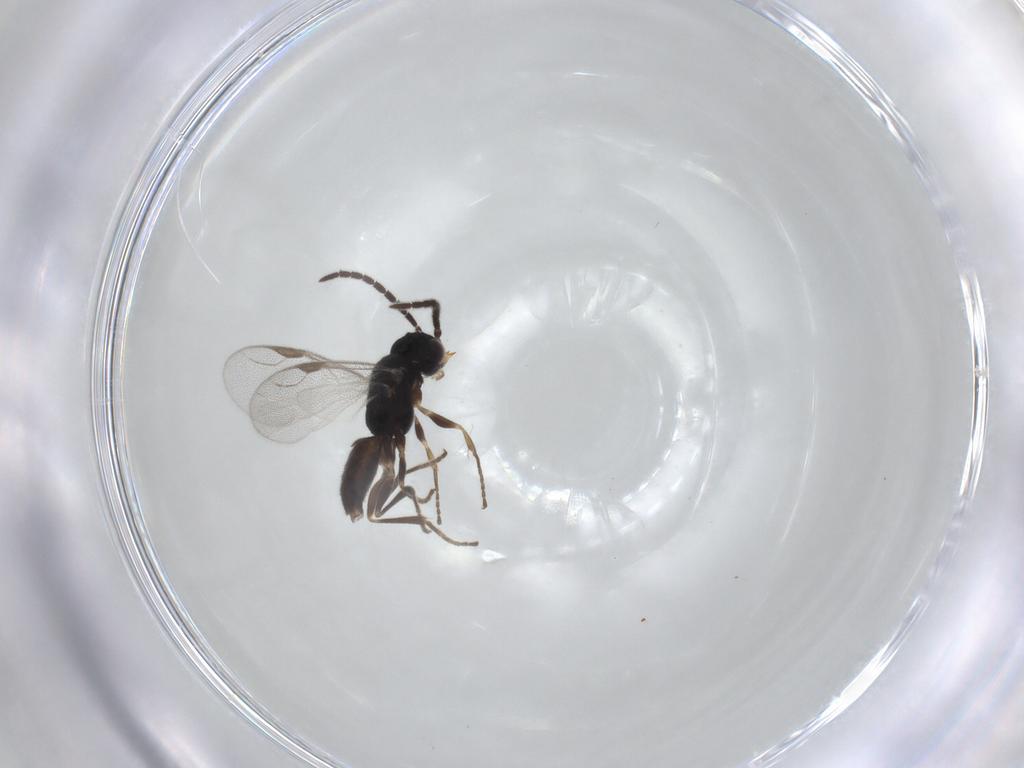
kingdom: Animalia
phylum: Arthropoda
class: Insecta
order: Hymenoptera
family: Dryinidae
